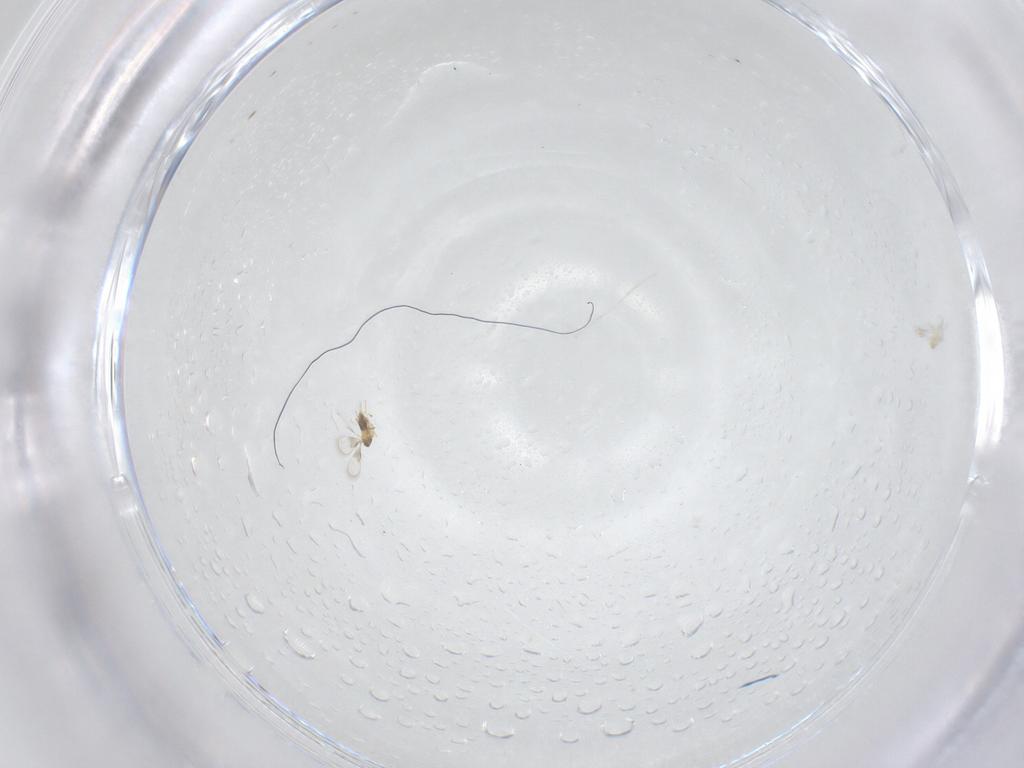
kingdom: Animalia
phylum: Arthropoda
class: Insecta
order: Hymenoptera
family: Trichogrammatidae
